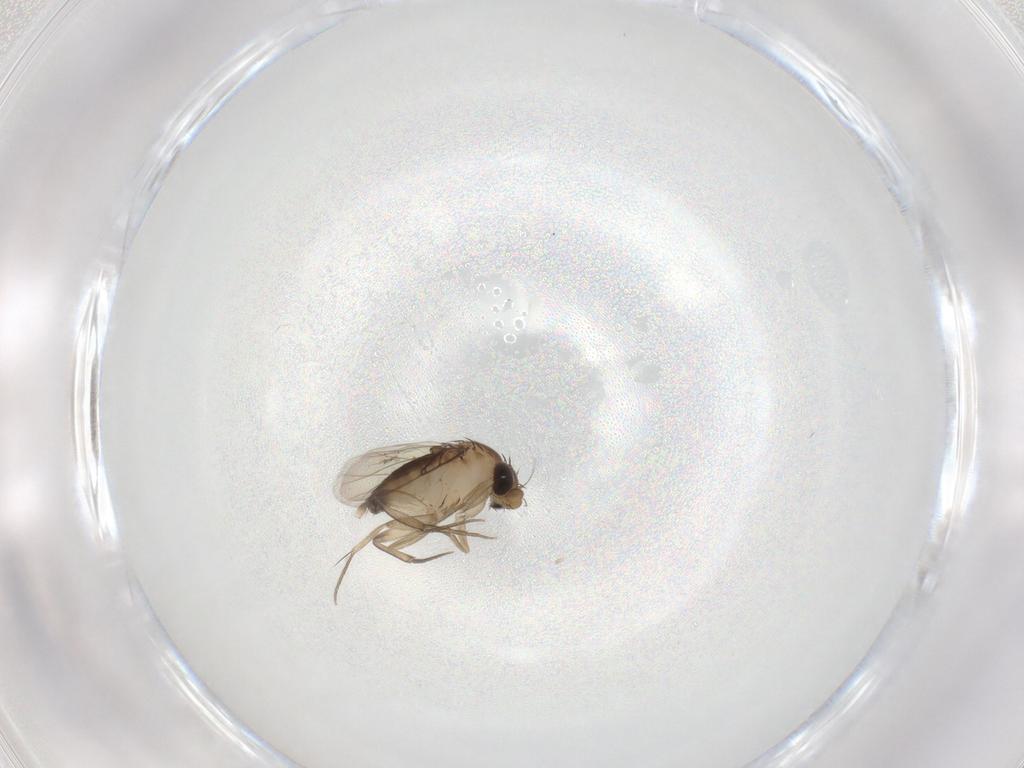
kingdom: Animalia
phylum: Arthropoda
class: Insecta
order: Diptera
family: Phoridae
